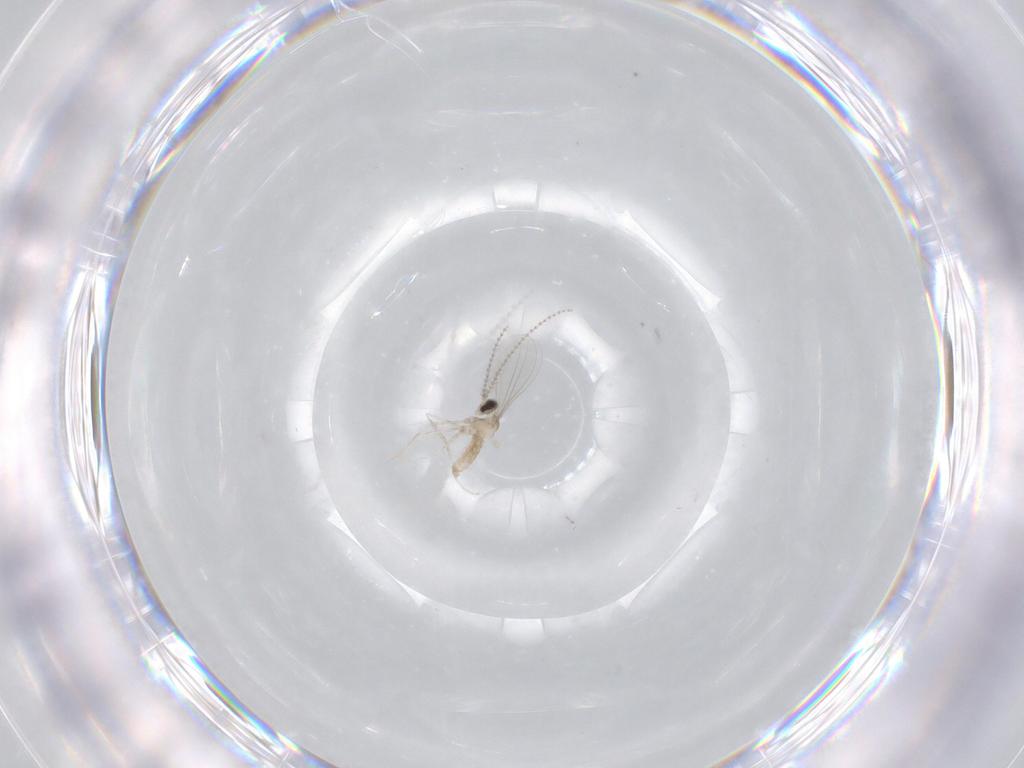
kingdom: Animalia
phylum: Arthropoda
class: Insecta
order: Diptera
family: Cecidomyiidae
